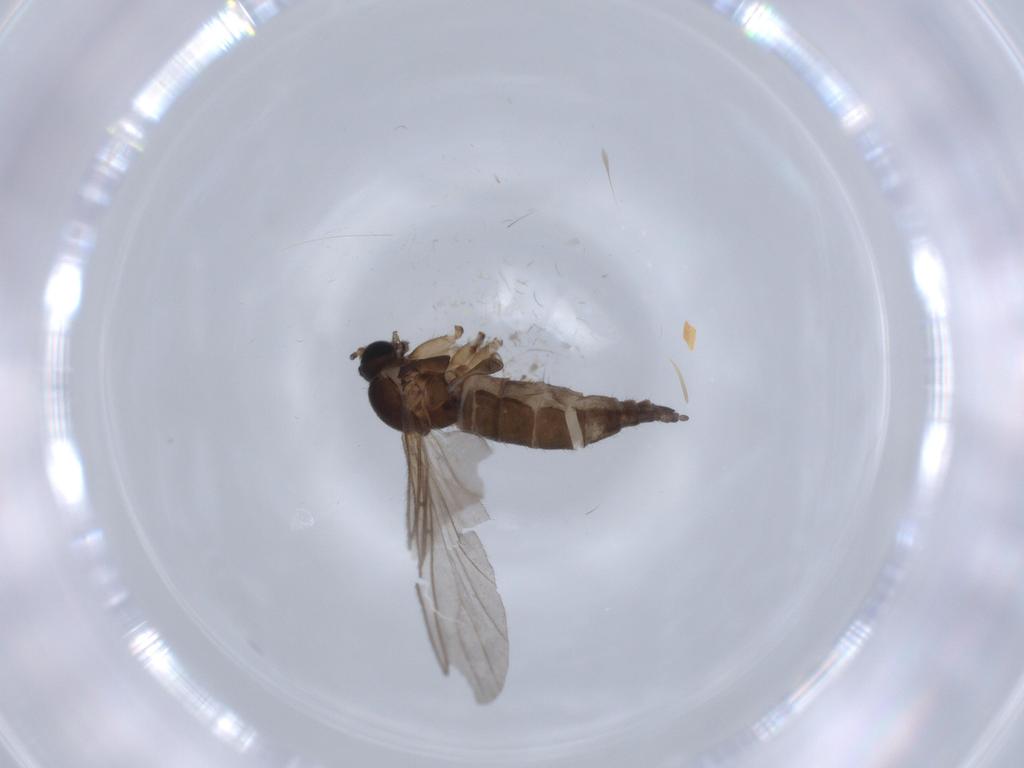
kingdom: Animalia
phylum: Arthropoda
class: Insecta
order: Diptera
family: Sciaridae
